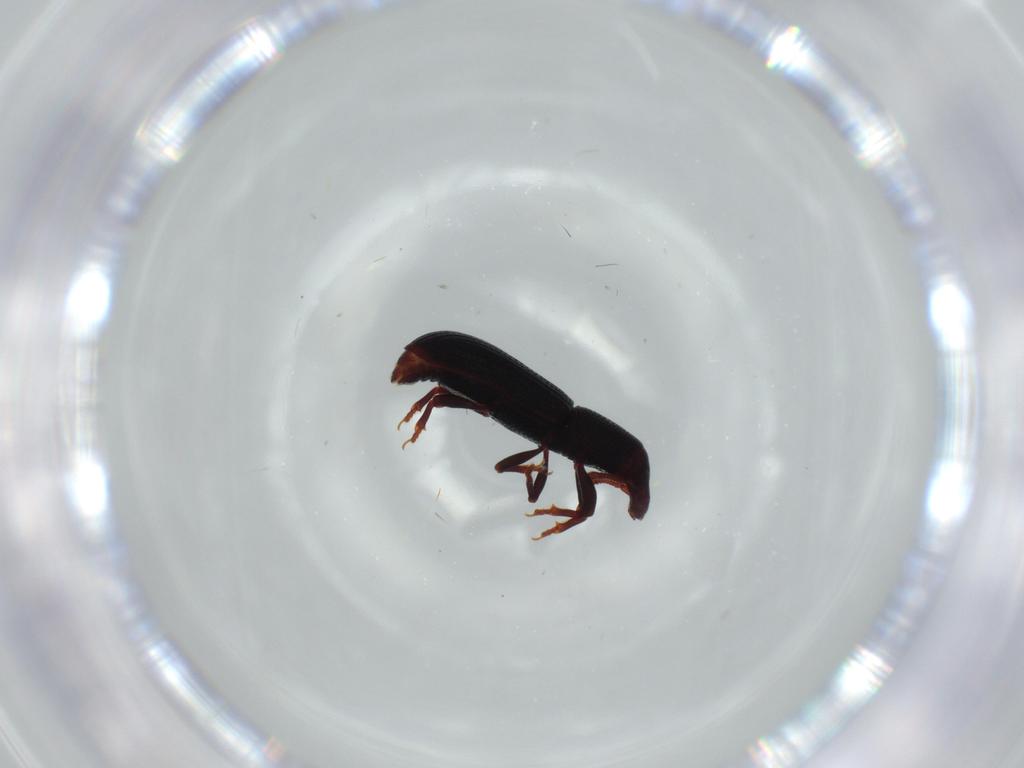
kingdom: Animalia
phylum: Arthropoda
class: Insecta
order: Coleoptera
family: Curculionidae
